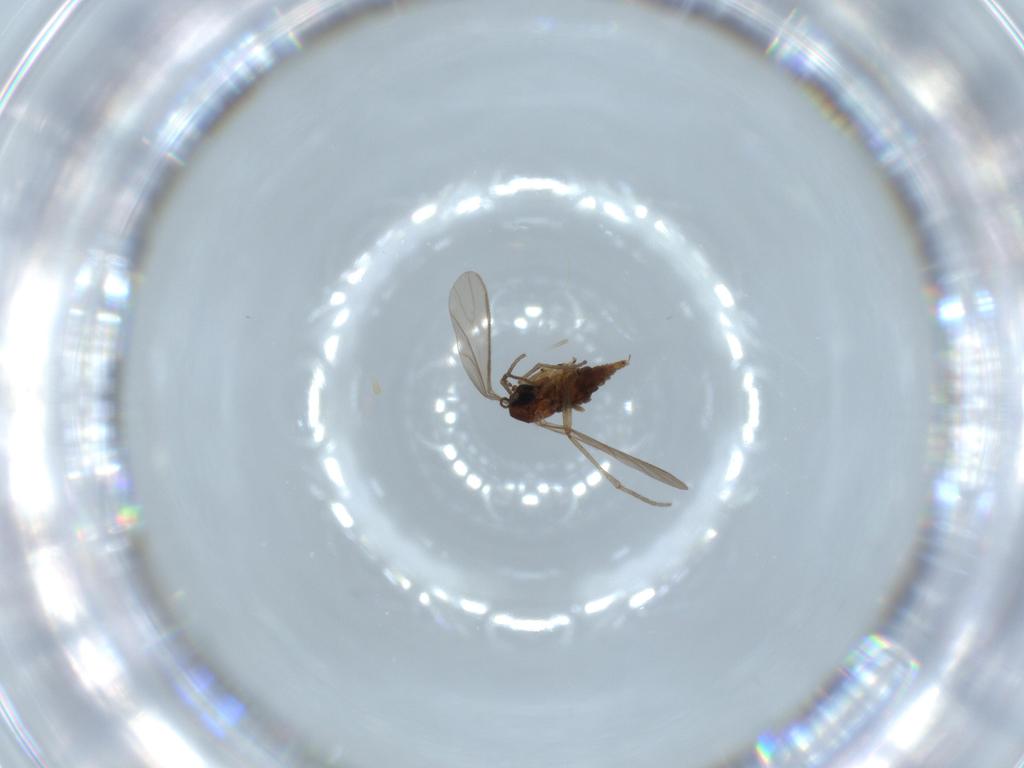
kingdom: Animalia
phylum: Arthropoda
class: Insecta
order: Diptera
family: Sciaridae
